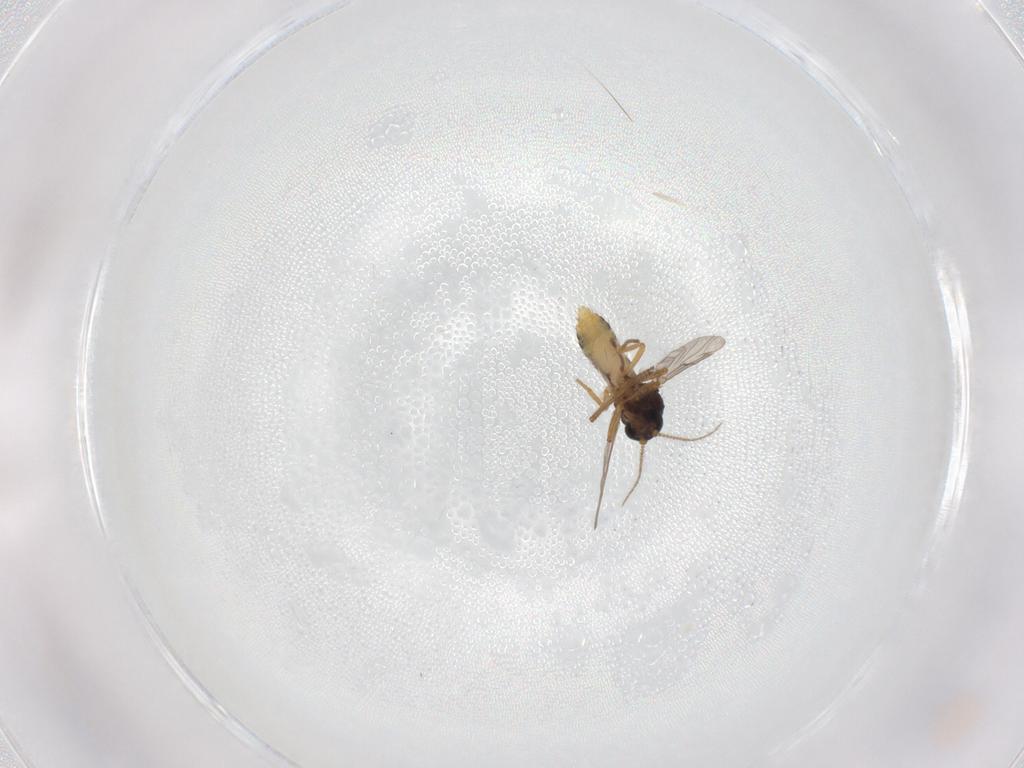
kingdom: Animalia
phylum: Arthropoda
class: Insecta
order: Diptera
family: Ceratopogonidae
